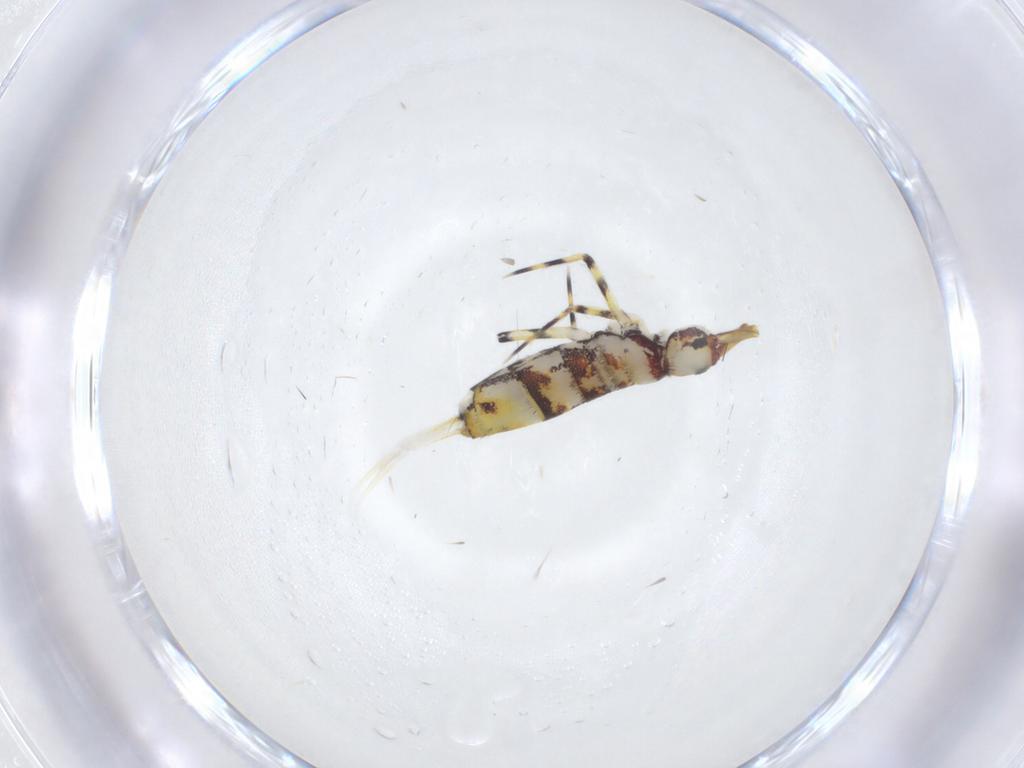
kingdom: Animalia
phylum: Arthropoda
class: Collembola
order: Entomobryomorpha
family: Entomobryidae
